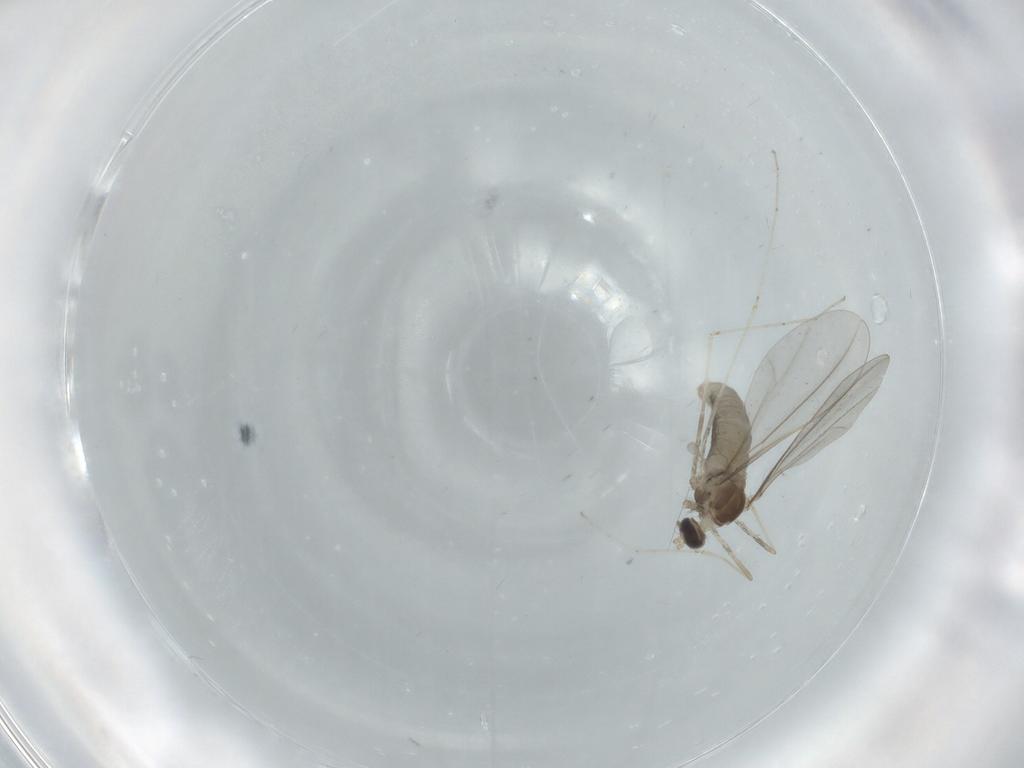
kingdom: Animalia
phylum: Arthropoda
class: Insecta
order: Diptera
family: Cecidomyiidae
